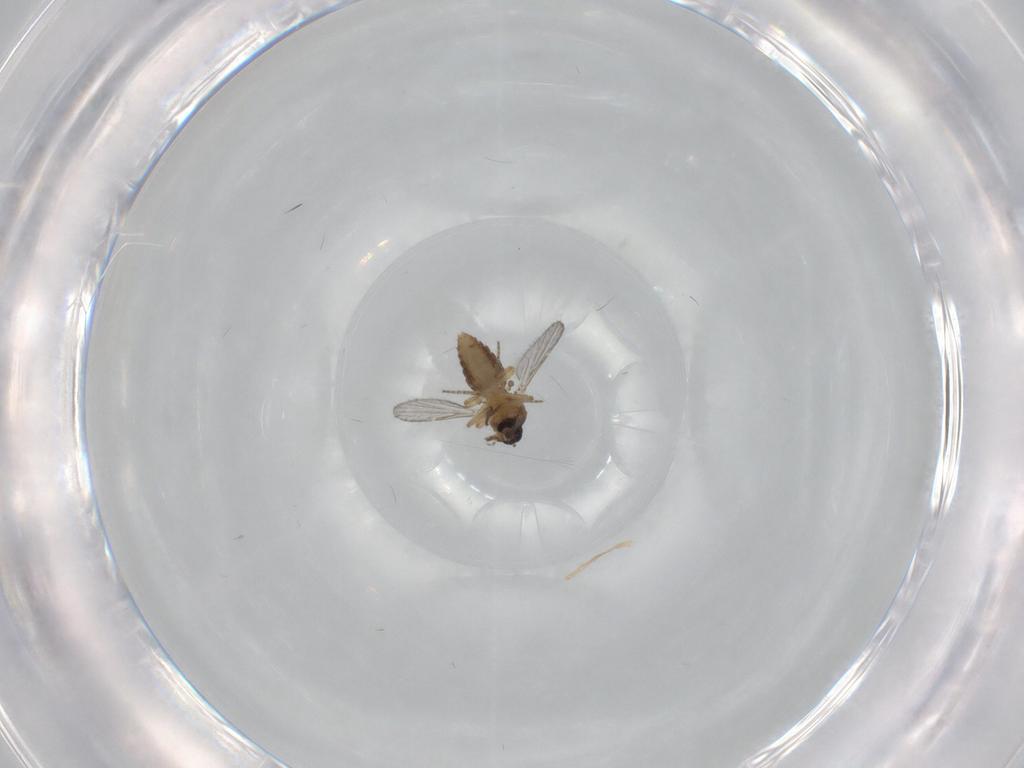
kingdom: Animalia
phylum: Arthropoda
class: Insecta
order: Diptera
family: Ceratopogonidae
